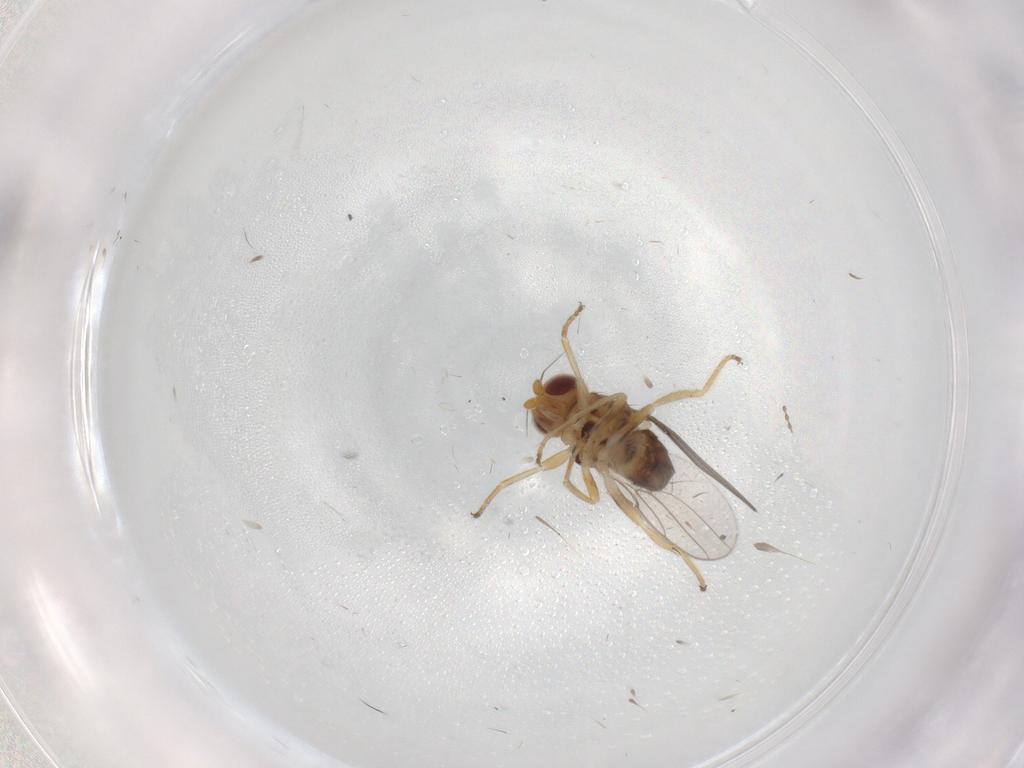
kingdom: Animalia
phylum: Arthropoda
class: Insecta
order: Diptera
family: Chloropidae
